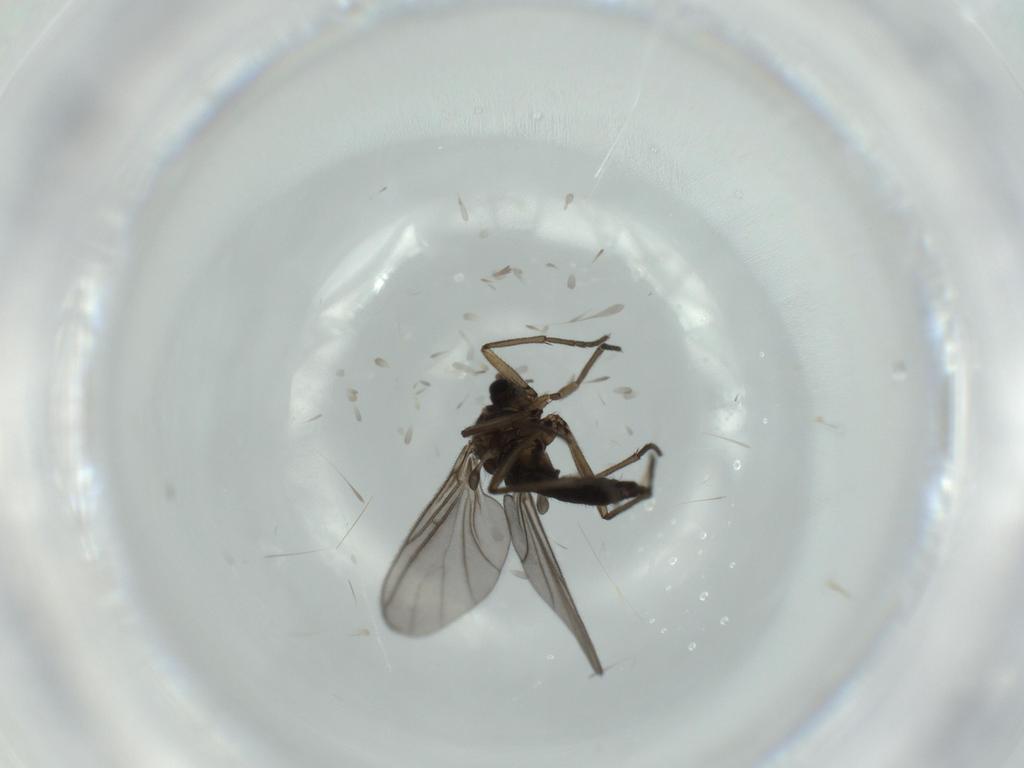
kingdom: Animalia
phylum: Arthropoda
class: Insecta
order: Diptera
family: Sciaridae
